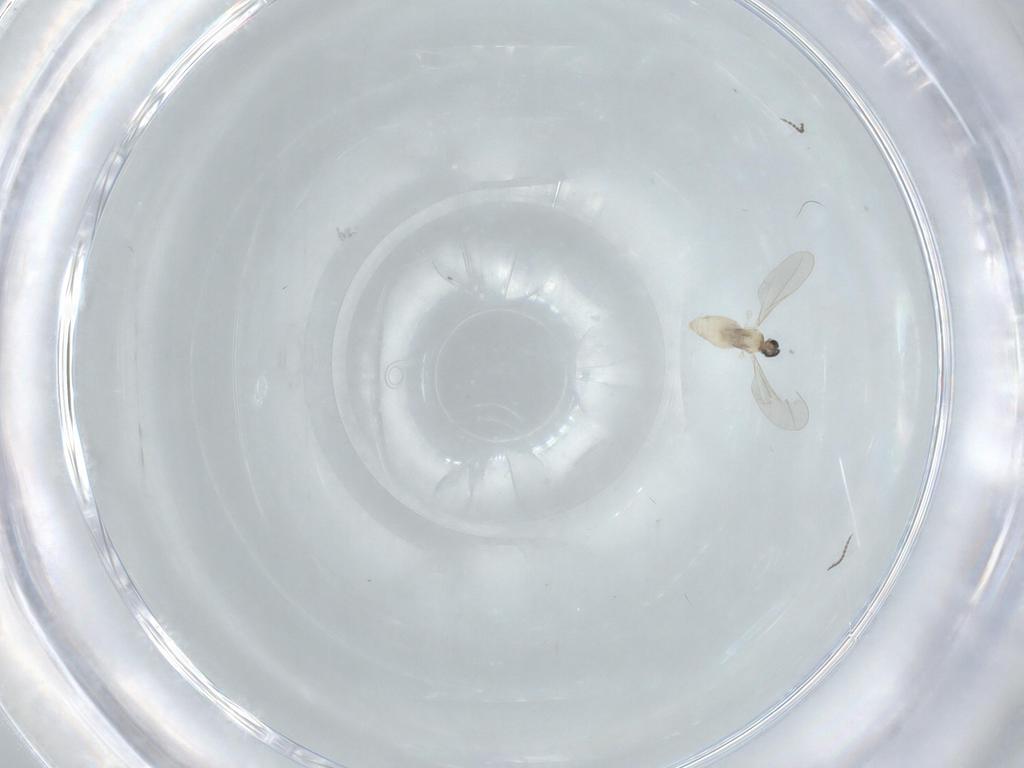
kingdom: Animalia
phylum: Arthropoda
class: Insecta
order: Diptera
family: Cecidomyiidae
